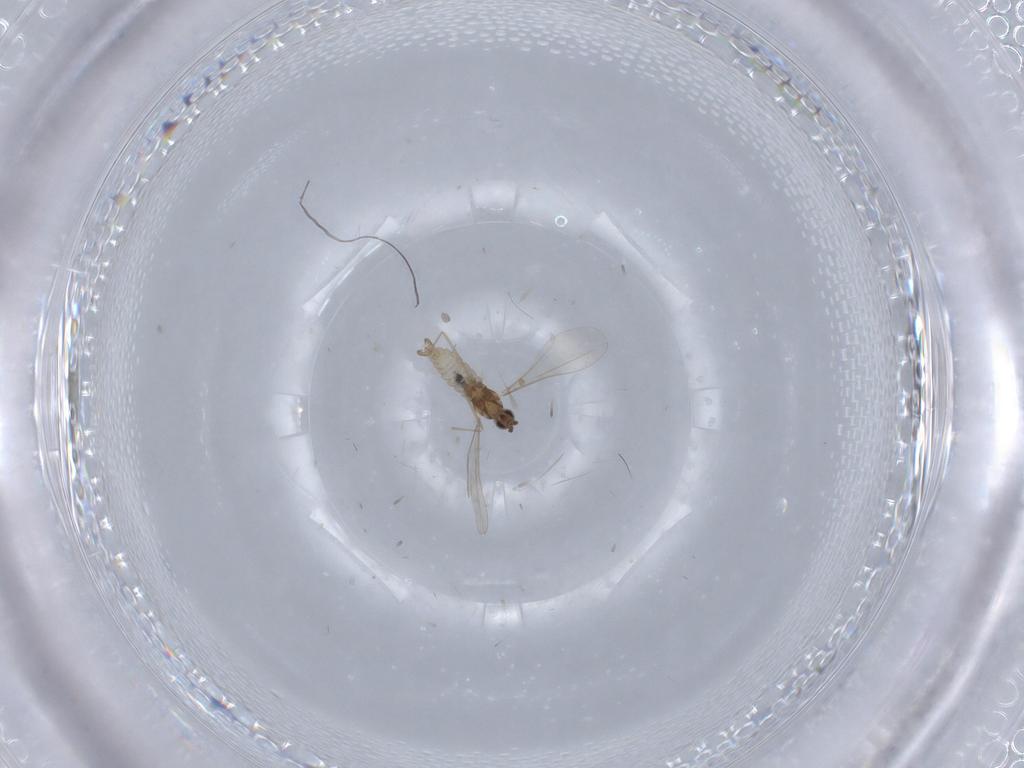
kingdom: Animalia
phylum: Arthropoda
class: Insecta
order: Diptera
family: Cecidomyiidae
